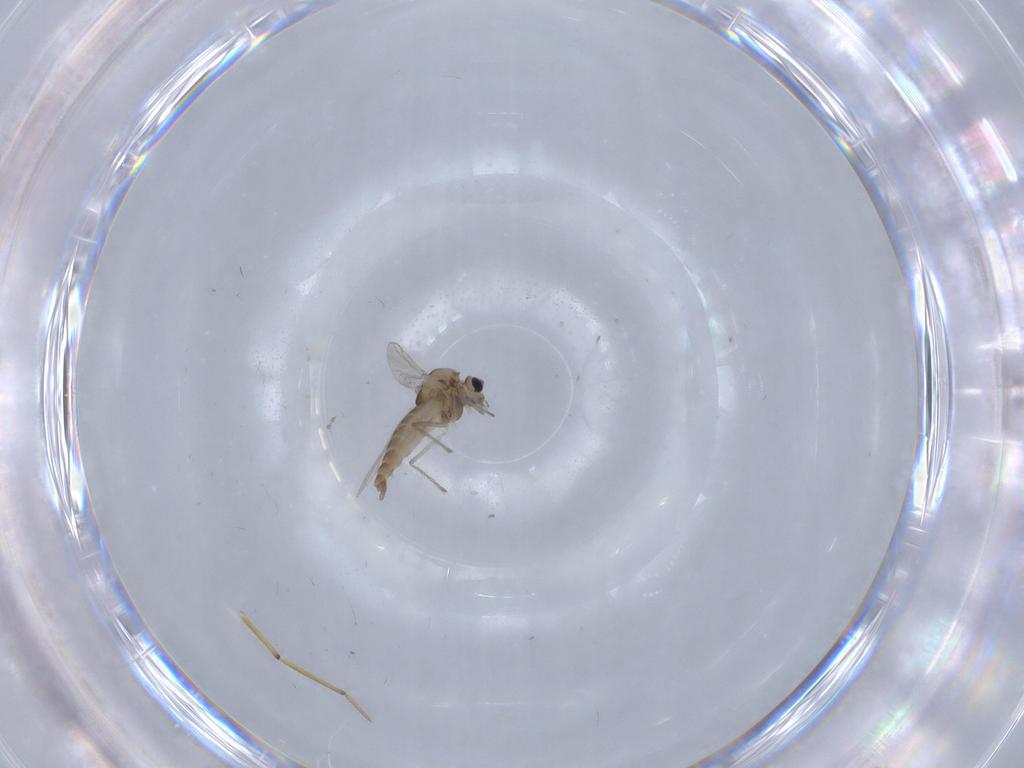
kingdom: Animalia
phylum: Arthropoda
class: Insecta
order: Diptera
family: Chironomidae
